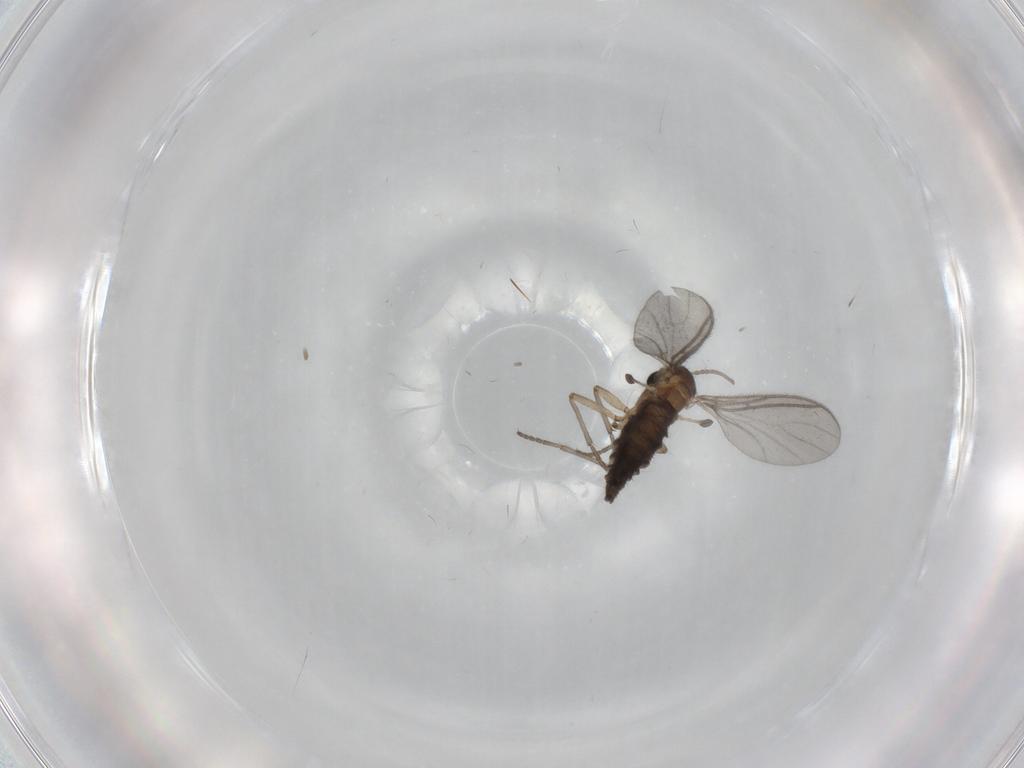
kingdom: Animalia
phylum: Arthropoda
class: Insecta
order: Diptera
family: Sciaridae
